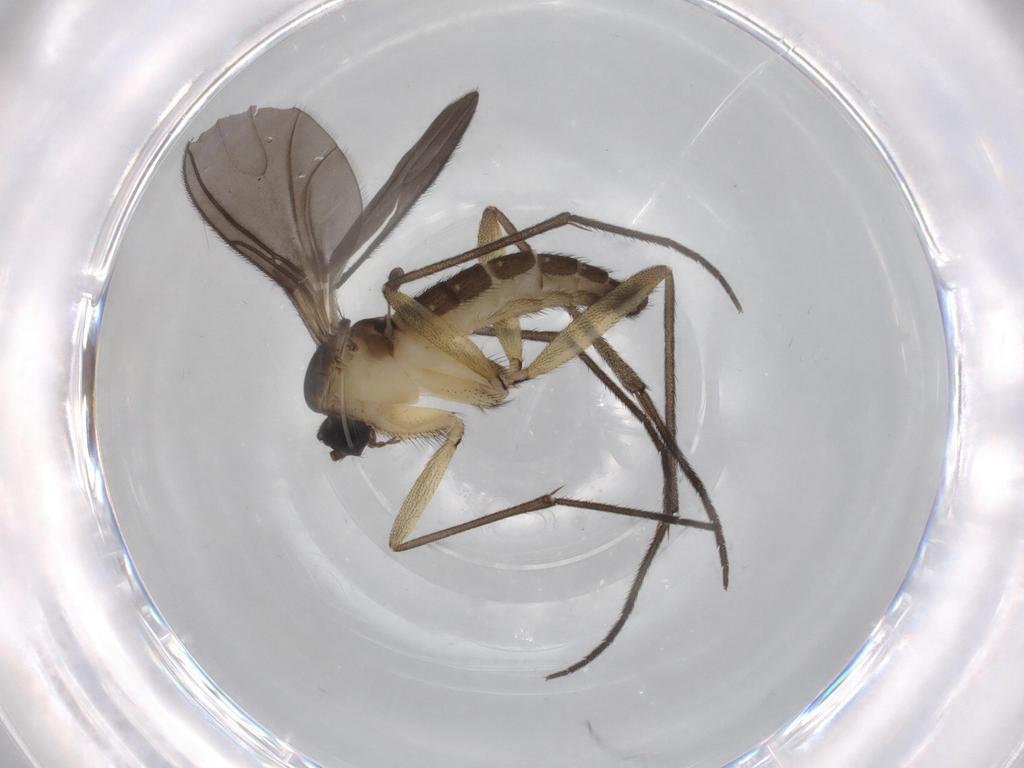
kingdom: Animalia
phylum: Arthropoda
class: Insecta
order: Diptera
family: Sciaridae
